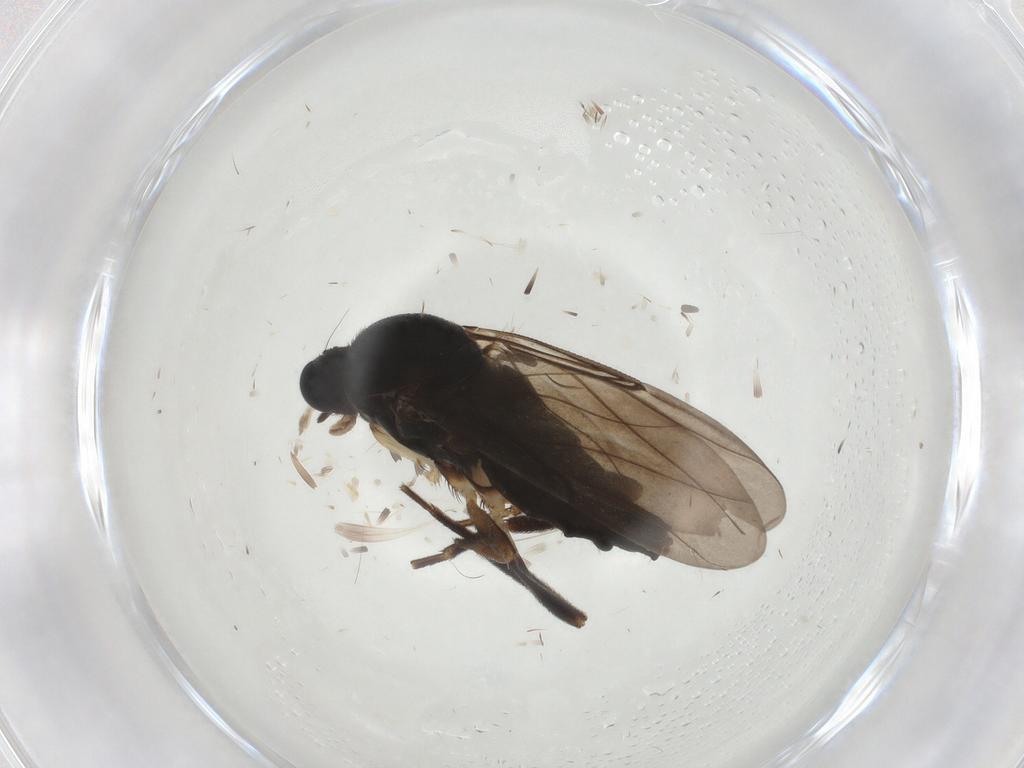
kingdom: Animalia
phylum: Arthropoda
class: Insecta
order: Diptera
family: Phoridae
